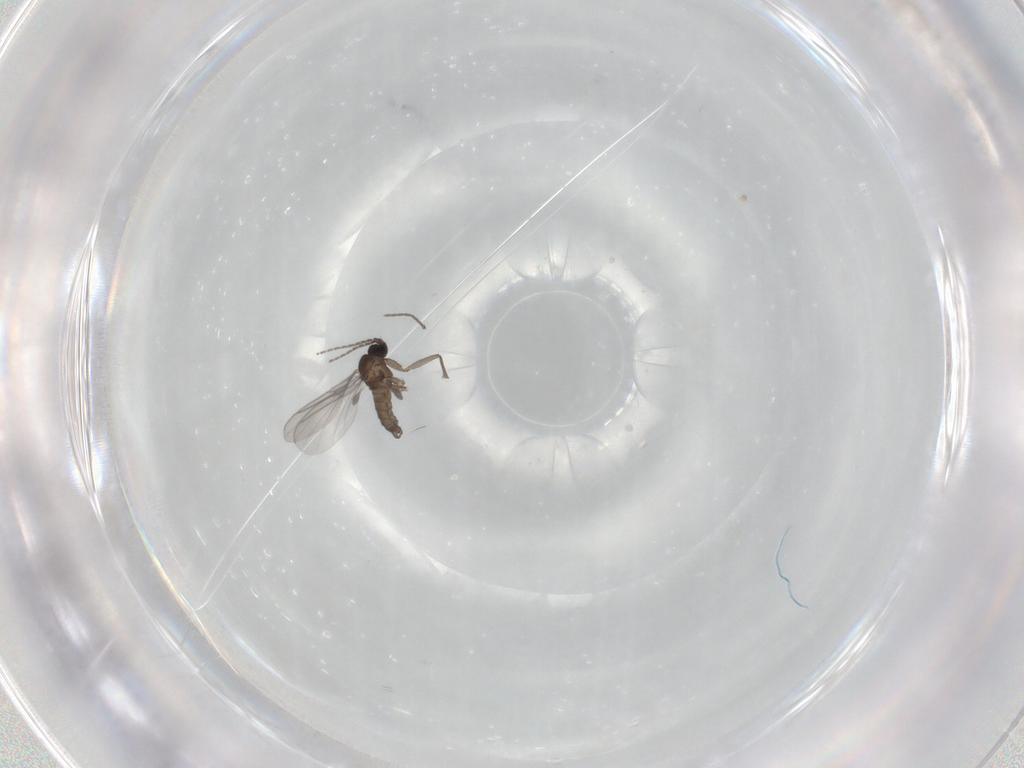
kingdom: Animalia
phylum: Arthropoda
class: Insecta
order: Diptera
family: Sciaridae
